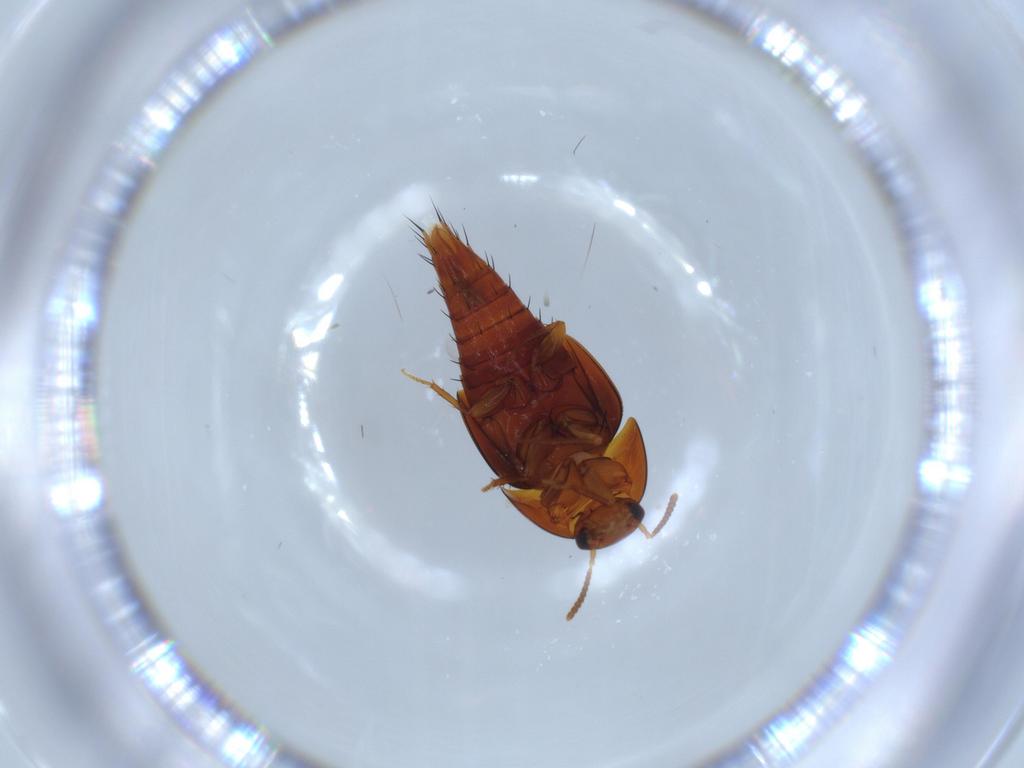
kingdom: Animalia
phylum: Arthropoda
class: Insecta
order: Coleoptera
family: Staphylinidae
